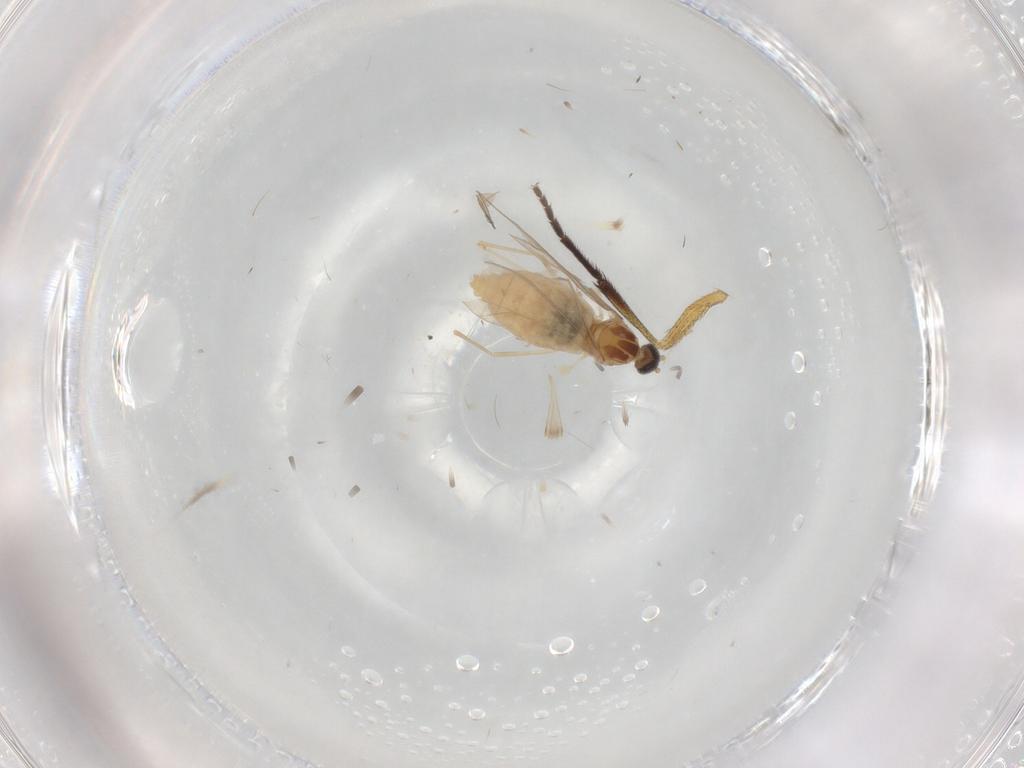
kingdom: Animalia
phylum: Arthropoda
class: Insecta
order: Diptera
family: Cecidomyiidae
